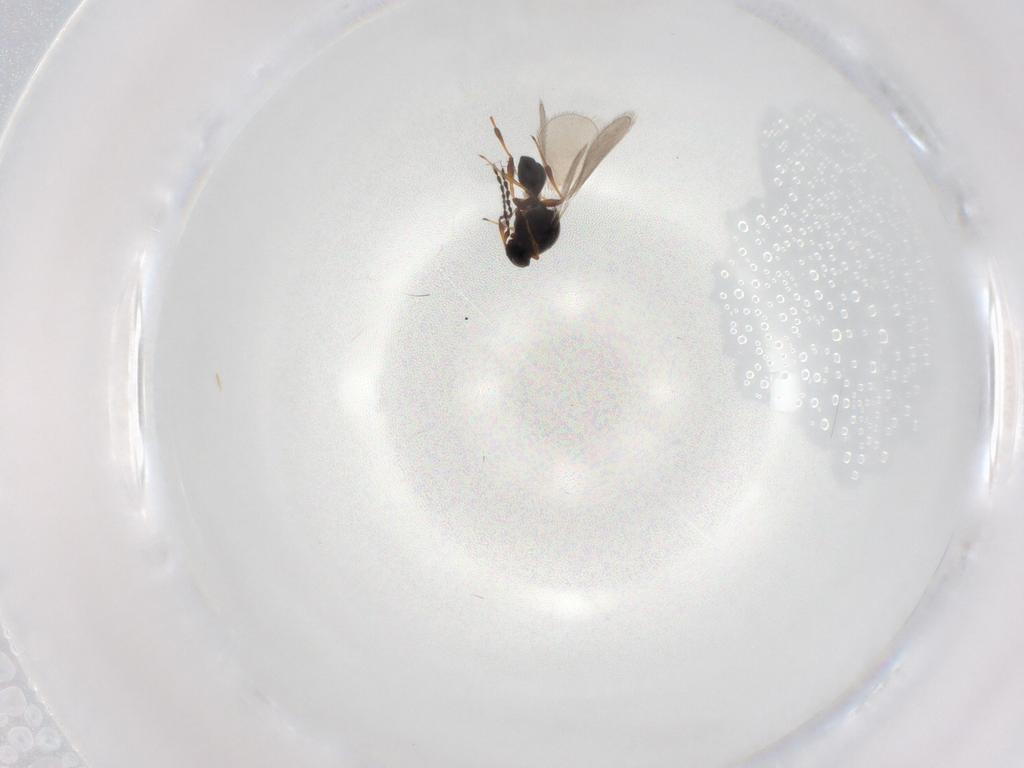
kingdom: Animalia
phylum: Arthropoda
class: Insecta
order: Hymenoptera
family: Platygastridae
